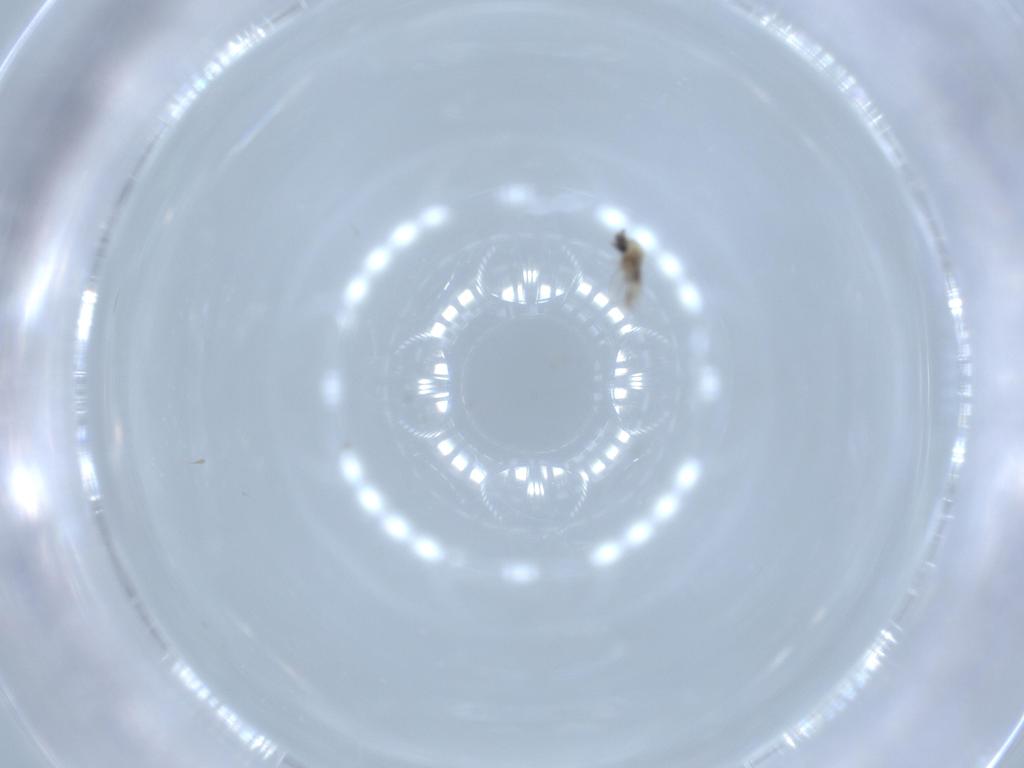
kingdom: Animalia
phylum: Arthropoda
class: Insecta
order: Diptera
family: Cecidomyiidae
